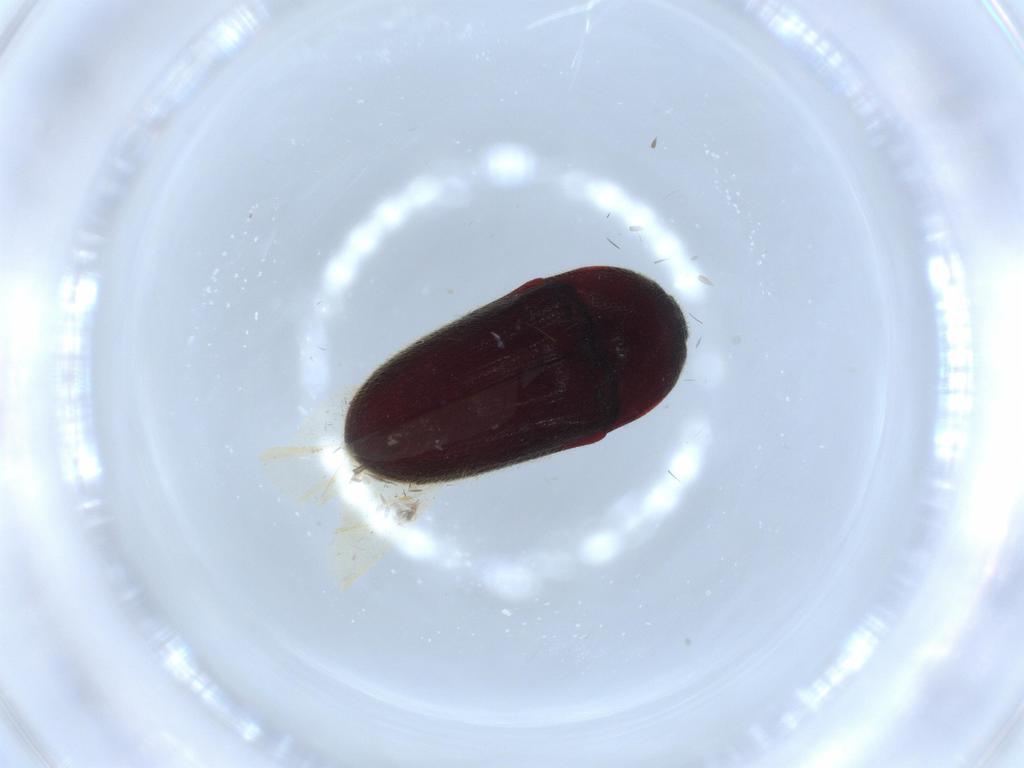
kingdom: Animalia
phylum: Arthropoda
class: Insecta
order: Coleoptera
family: Throscidae
